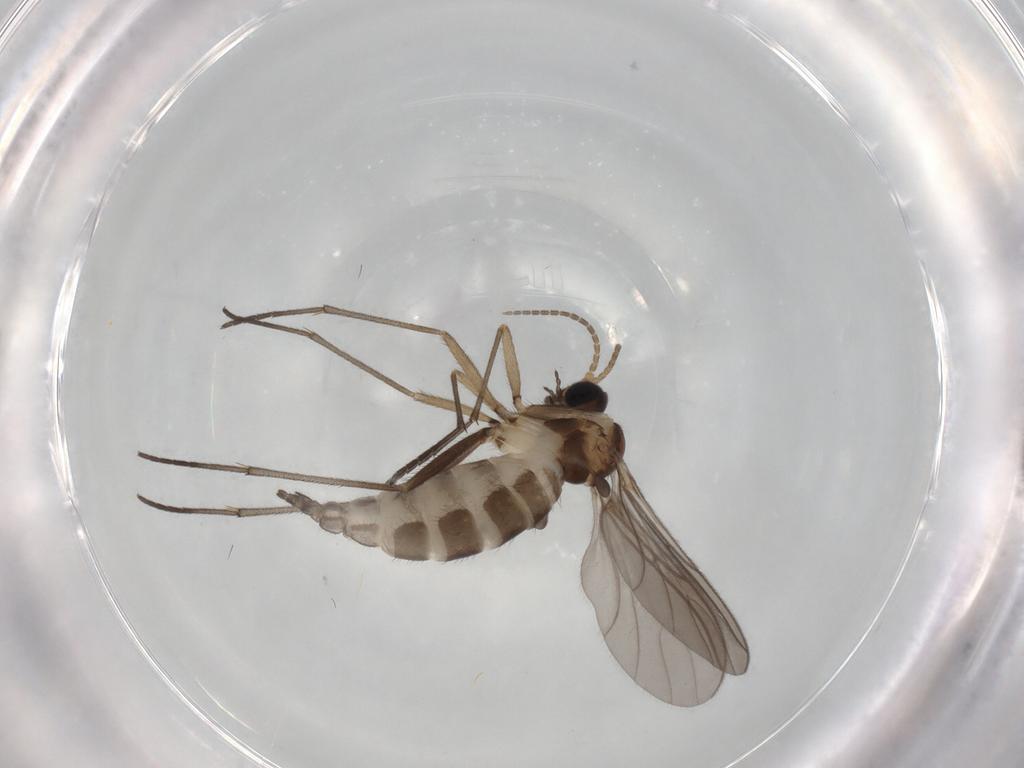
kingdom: Animalia
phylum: Arthropoda
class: Insecta
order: Diptera
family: Sciaridae
